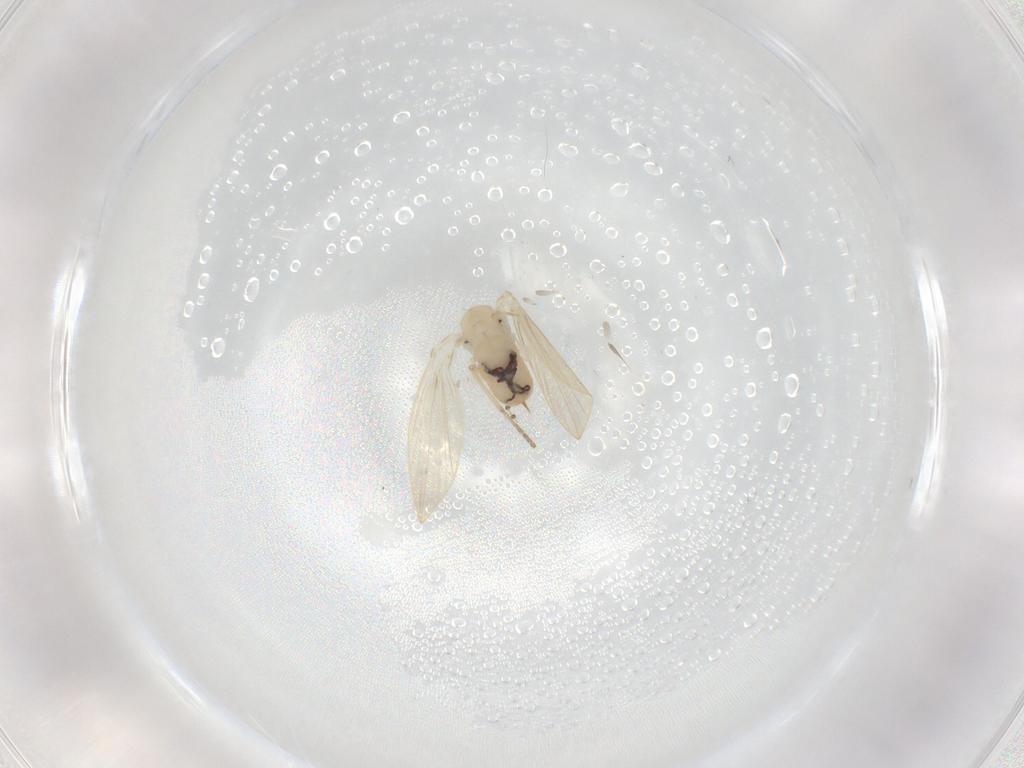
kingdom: Animalia
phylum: Arthropoda
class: Insecta
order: Diptera
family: Psychodidae
